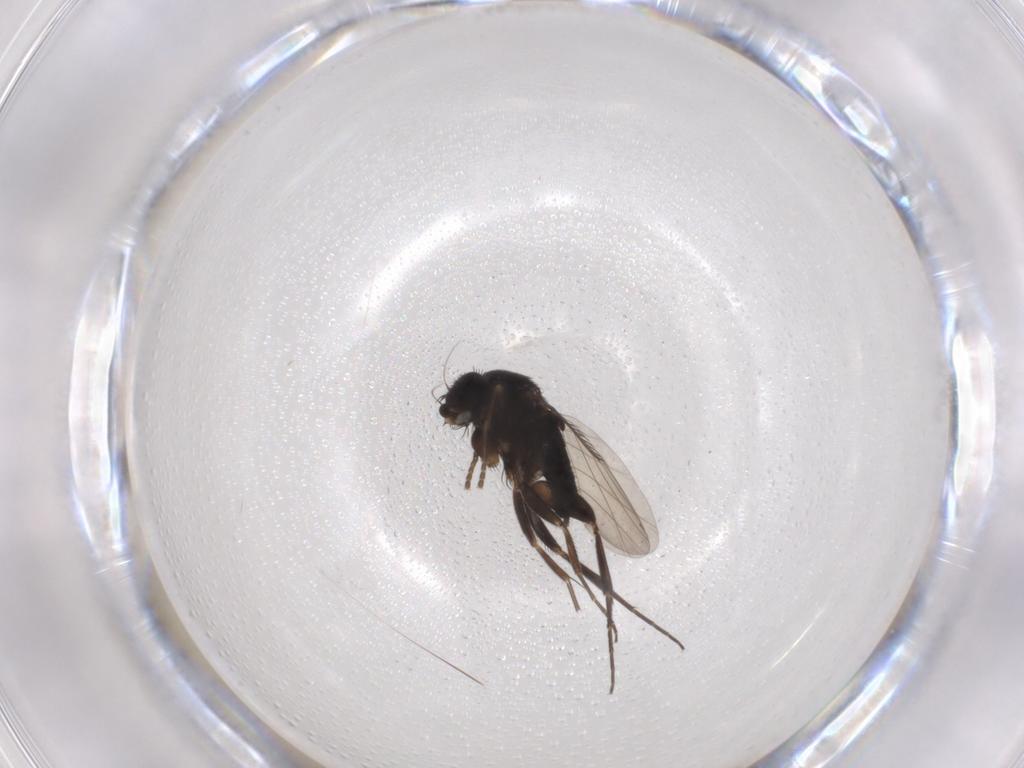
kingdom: Animalia
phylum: Arthropoda
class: Insecta
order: Diptera
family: Phoridae
